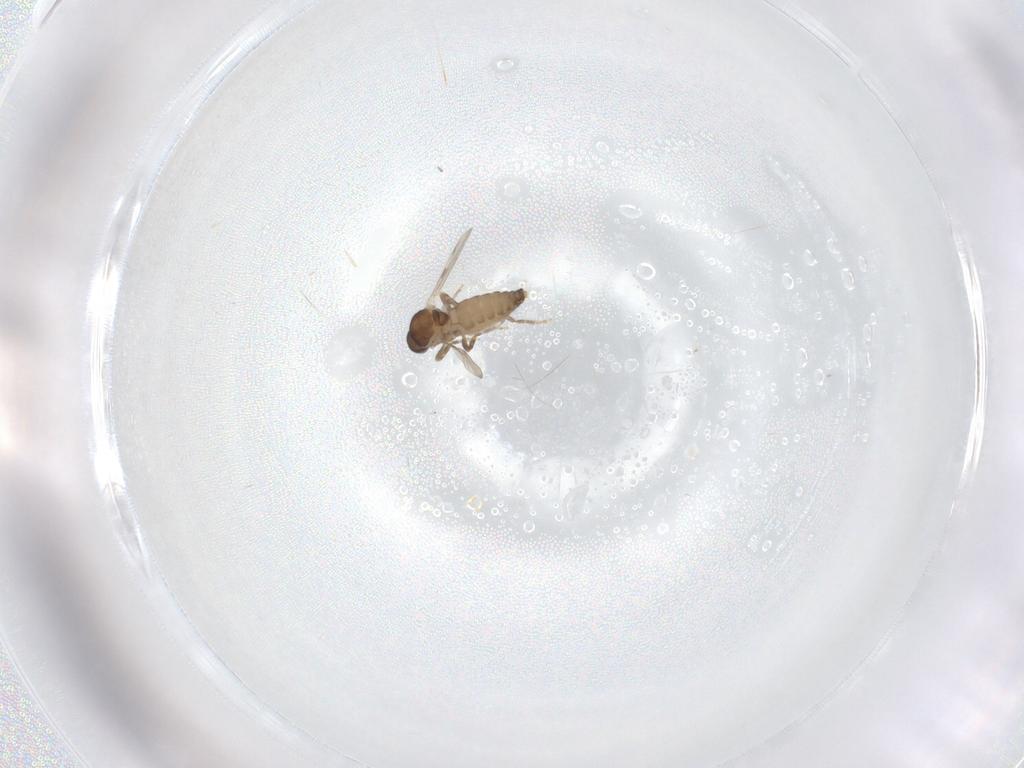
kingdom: Animalia
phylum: Arthropoda
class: Insecta
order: Diptera
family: Ceratopogonidae
